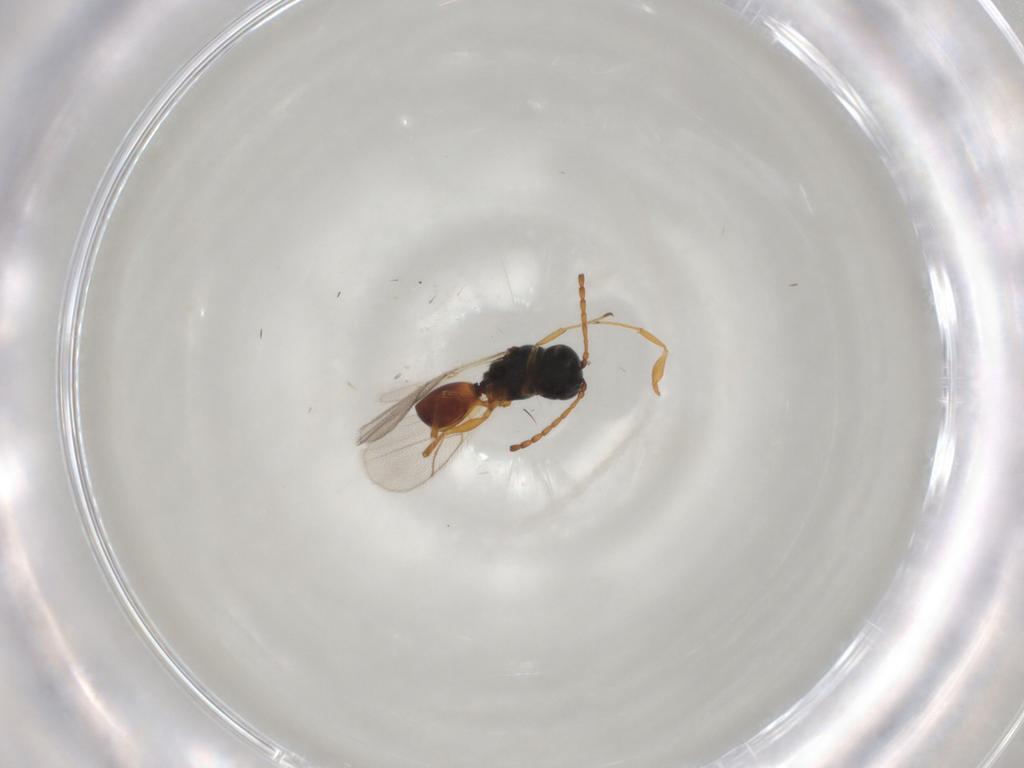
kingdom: Animalia
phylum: Arthropoda
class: Insecta
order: Hymenoptera
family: Figitidae
